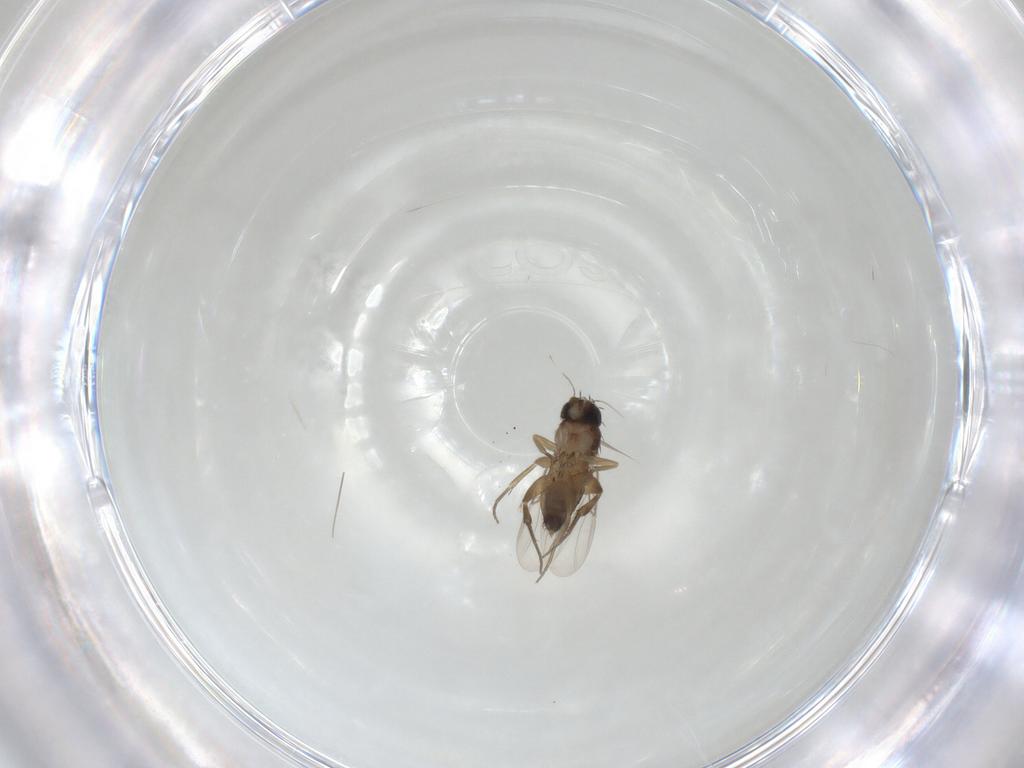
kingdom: Animalia
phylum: Arthropoda
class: Insecta
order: Diptera
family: Phoridae
